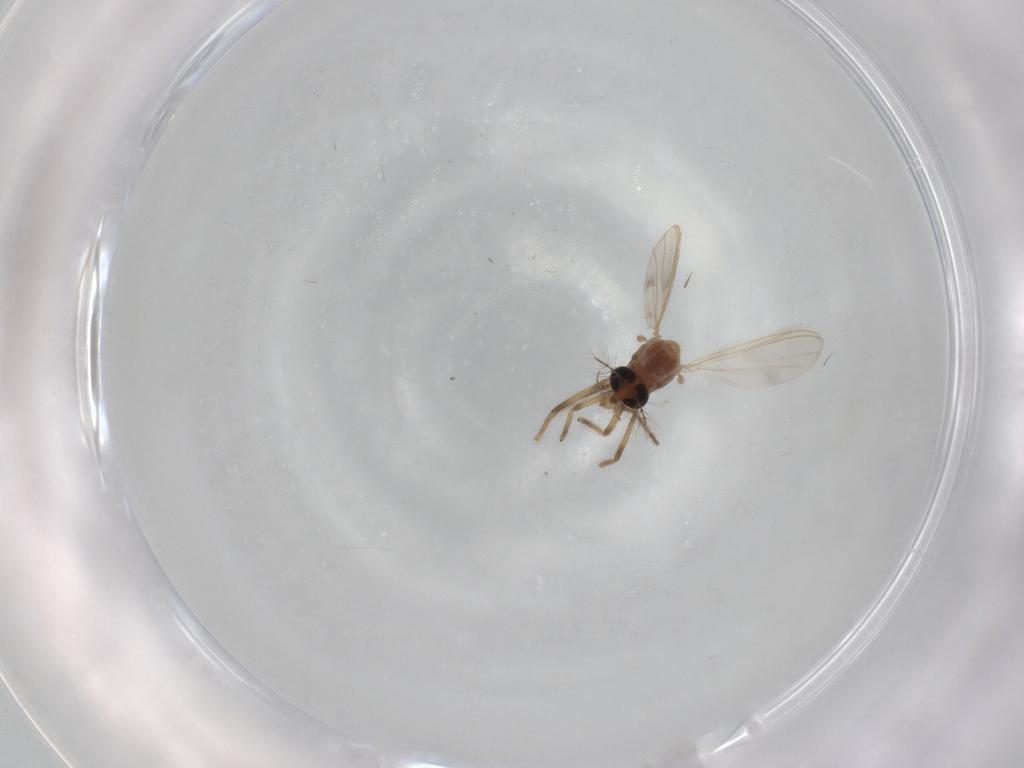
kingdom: Animalia
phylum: Arthropoda
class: Insecta
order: Diptera
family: Chironomidae
